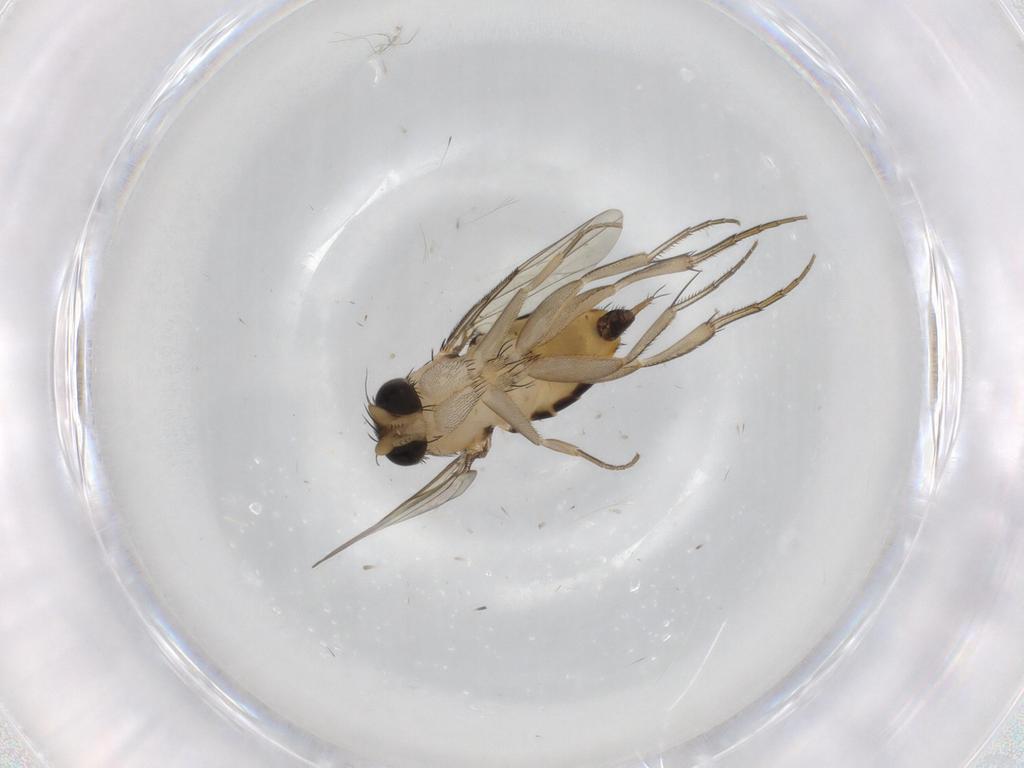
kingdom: Animalia
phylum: Arthropoda
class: Insecta
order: Diptera
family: Phoridae
